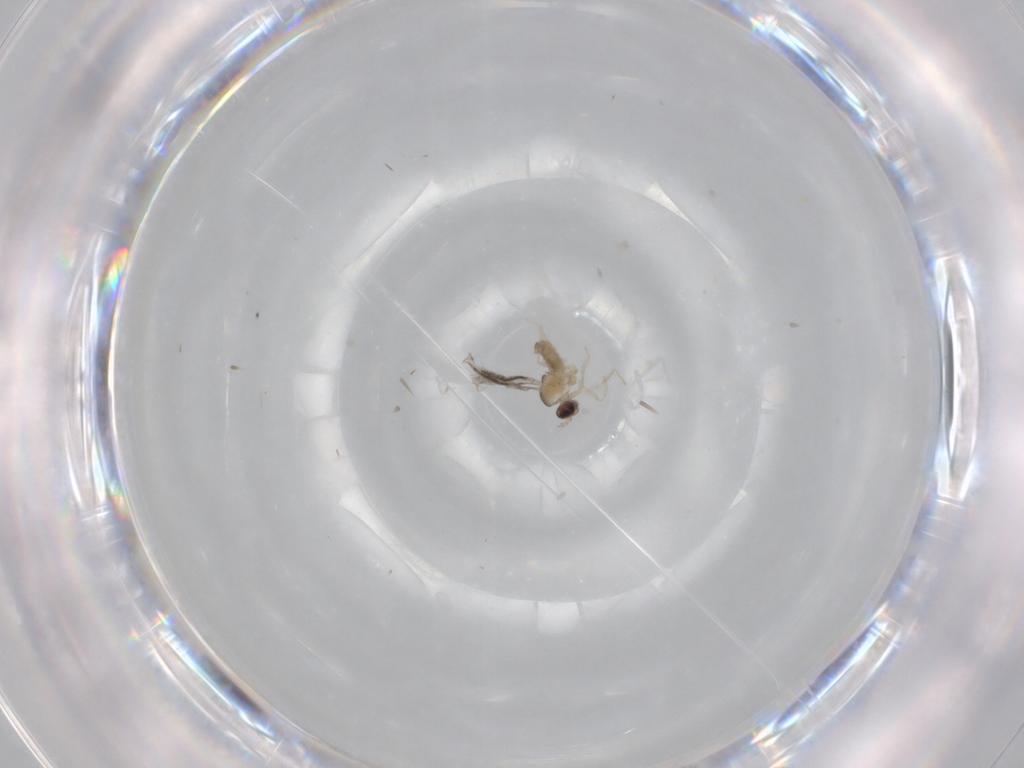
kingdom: Animalia
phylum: Arthropoda
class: Insecta
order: Diptera
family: Cecidomyiidae
